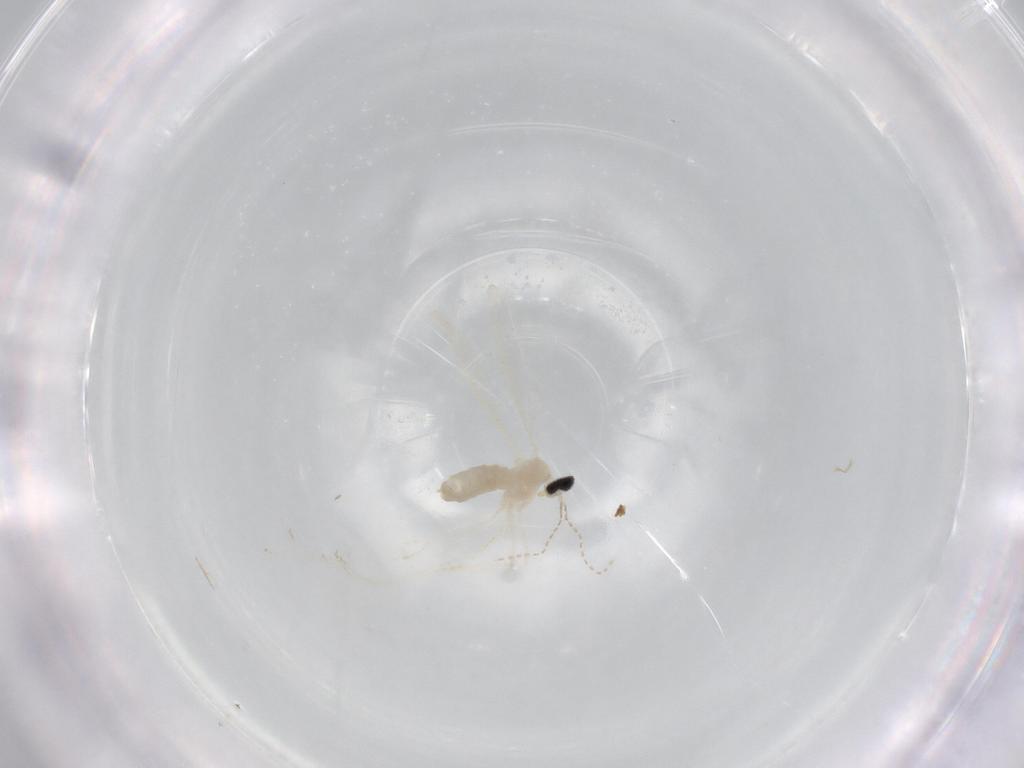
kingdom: Animalia
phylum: Arthropoda
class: Insecta
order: Diptera
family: Cecidomyiidae
